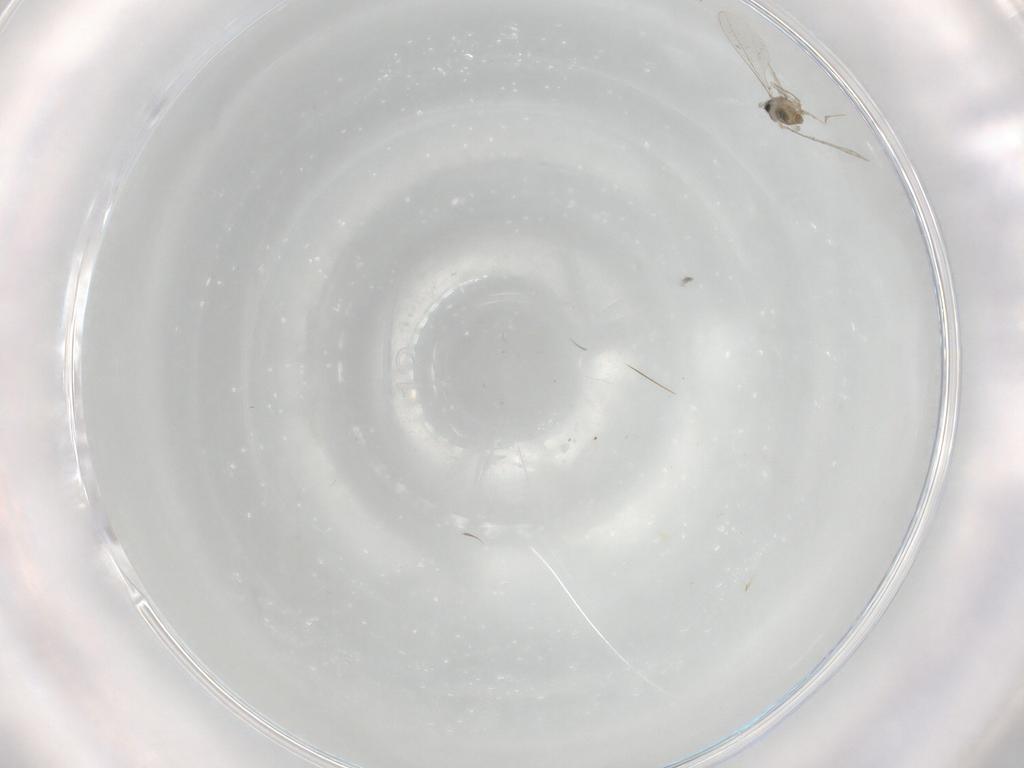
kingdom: Animalia
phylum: Arthropoda
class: Insecta
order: Diptera
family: Cecidomyiidae
